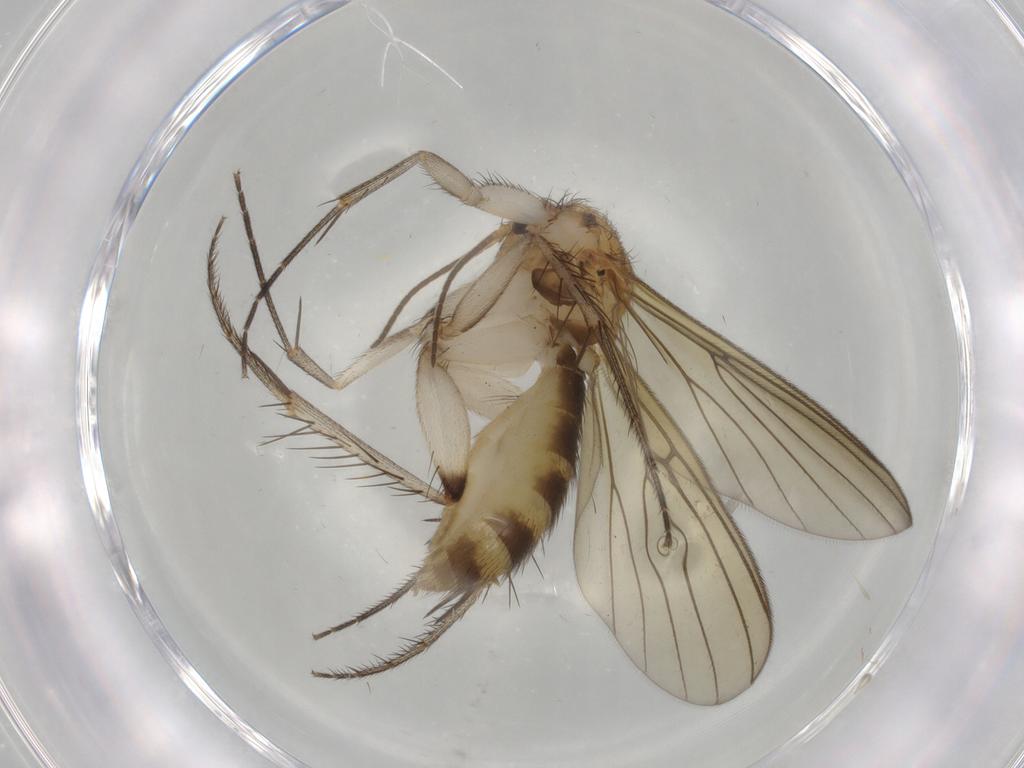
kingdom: Animalia
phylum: Arthropoda
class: Insecta
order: Diptera
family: Mycetophilidae
